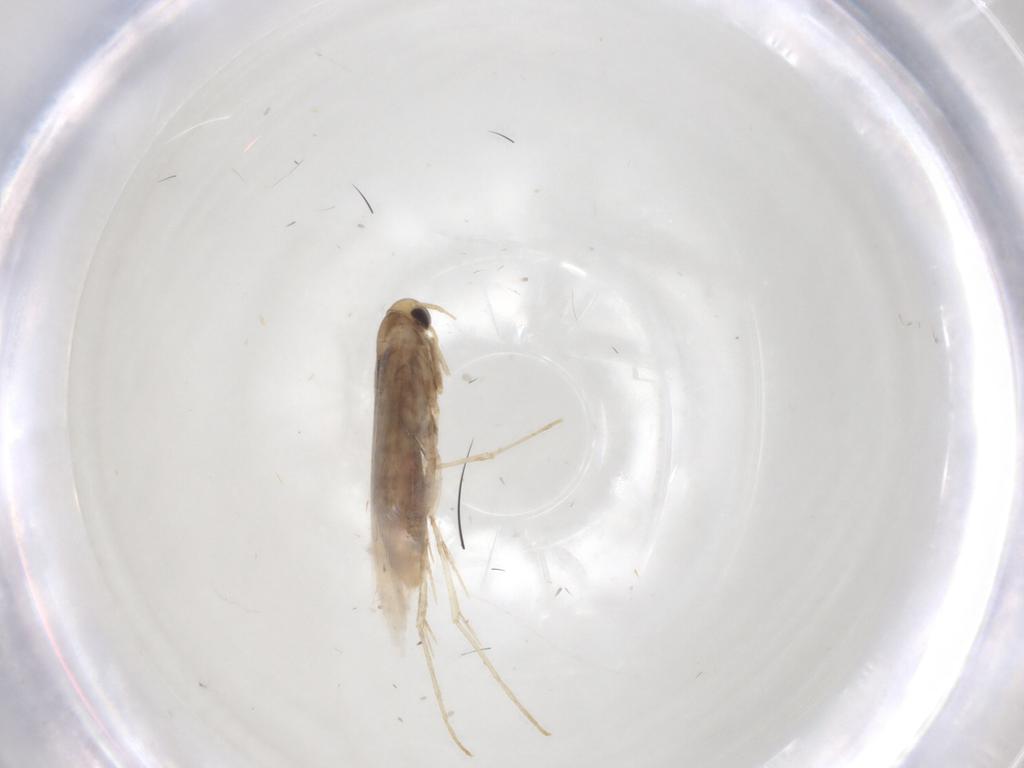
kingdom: Animalia
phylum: Arthropoda
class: Insecta
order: Lepidoptera
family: Gracillariidae
